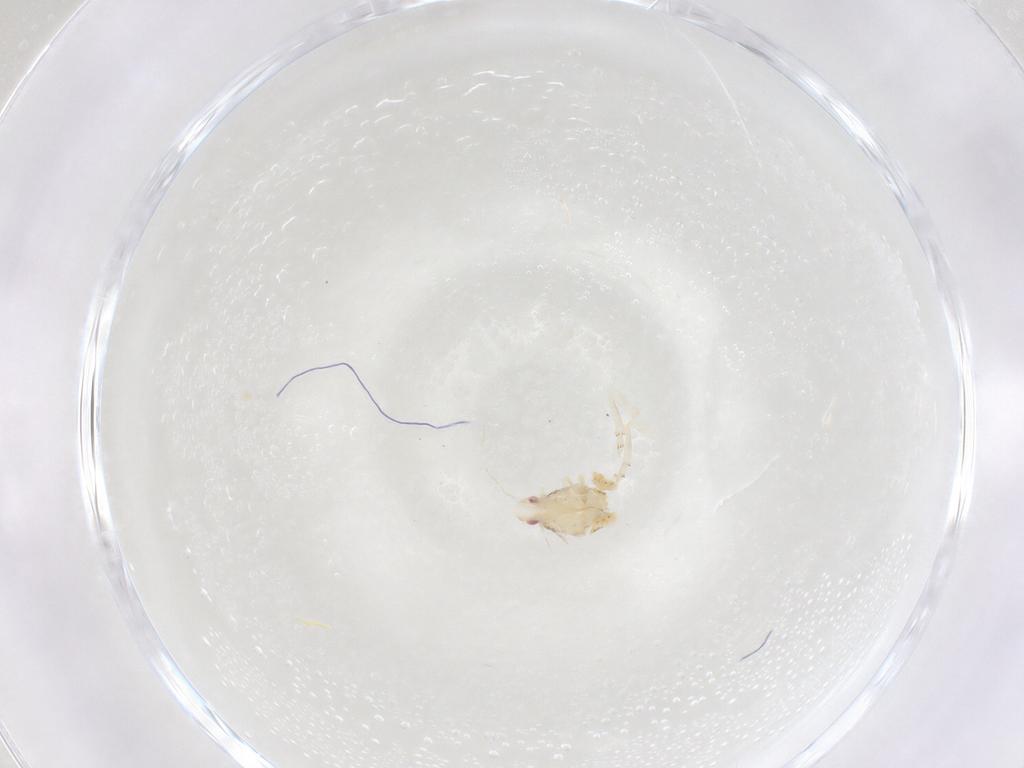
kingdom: Animalia
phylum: Arthropoda
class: Insecta
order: Hemiptera
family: Flatidae
